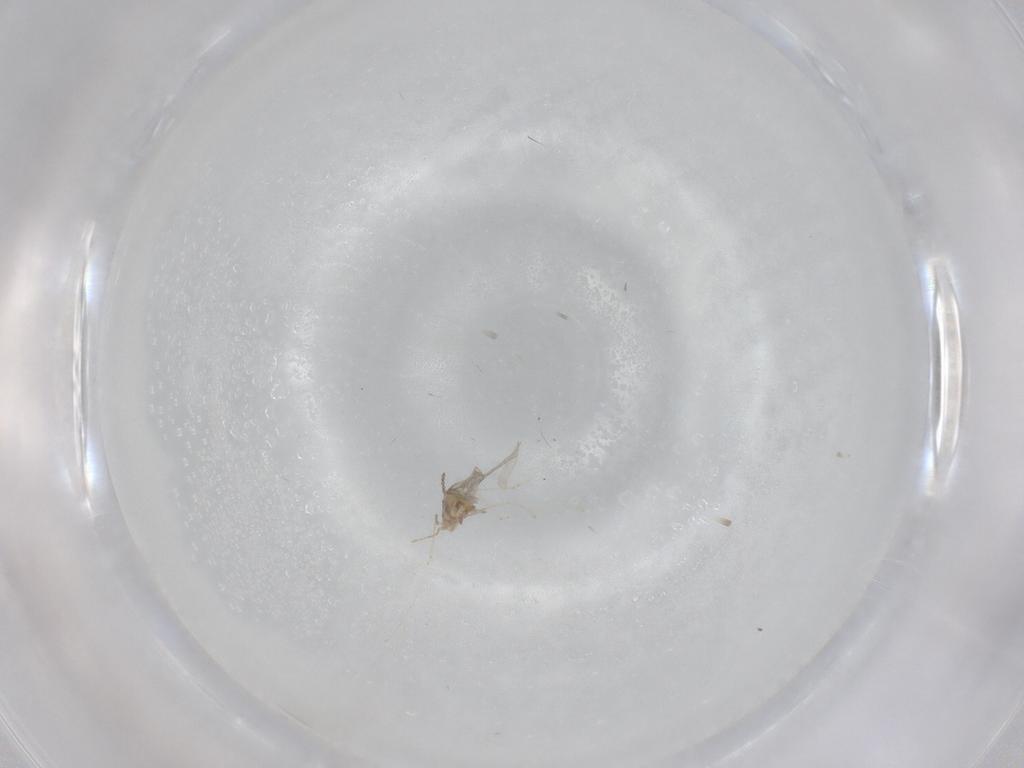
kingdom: Animalia
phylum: Arthropoda
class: Insecta
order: Diptera
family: Cecidomyiidae
